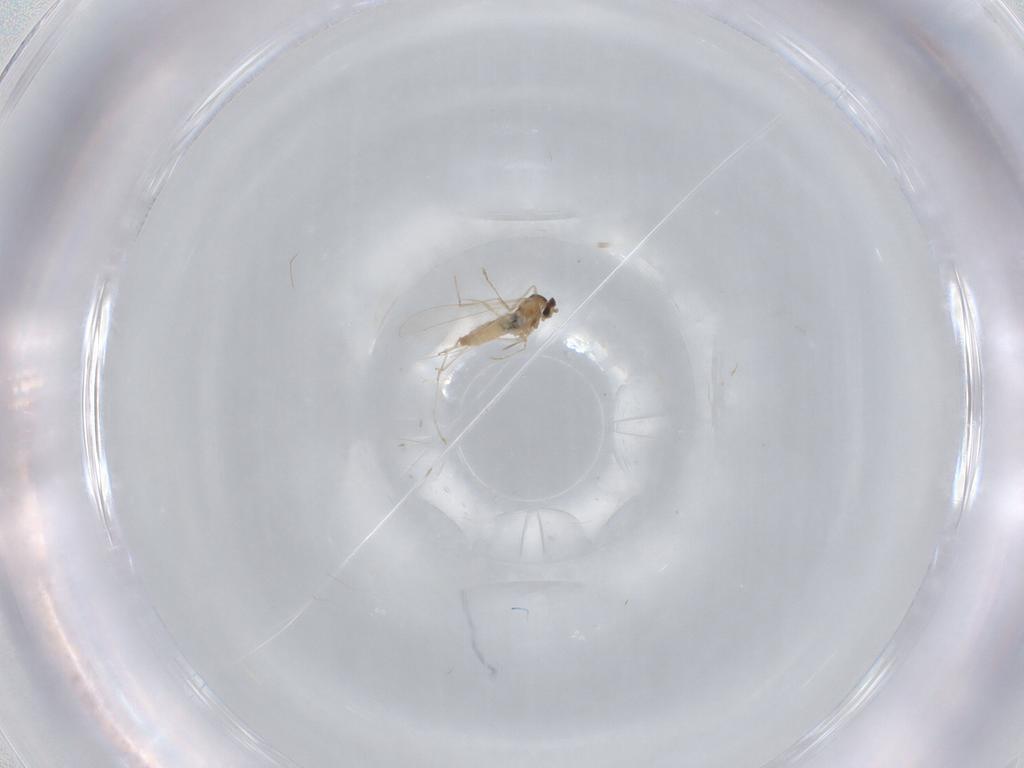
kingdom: Animalia
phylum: Arthropoda
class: Insecta
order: Diptera
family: Cecidomyiidae
